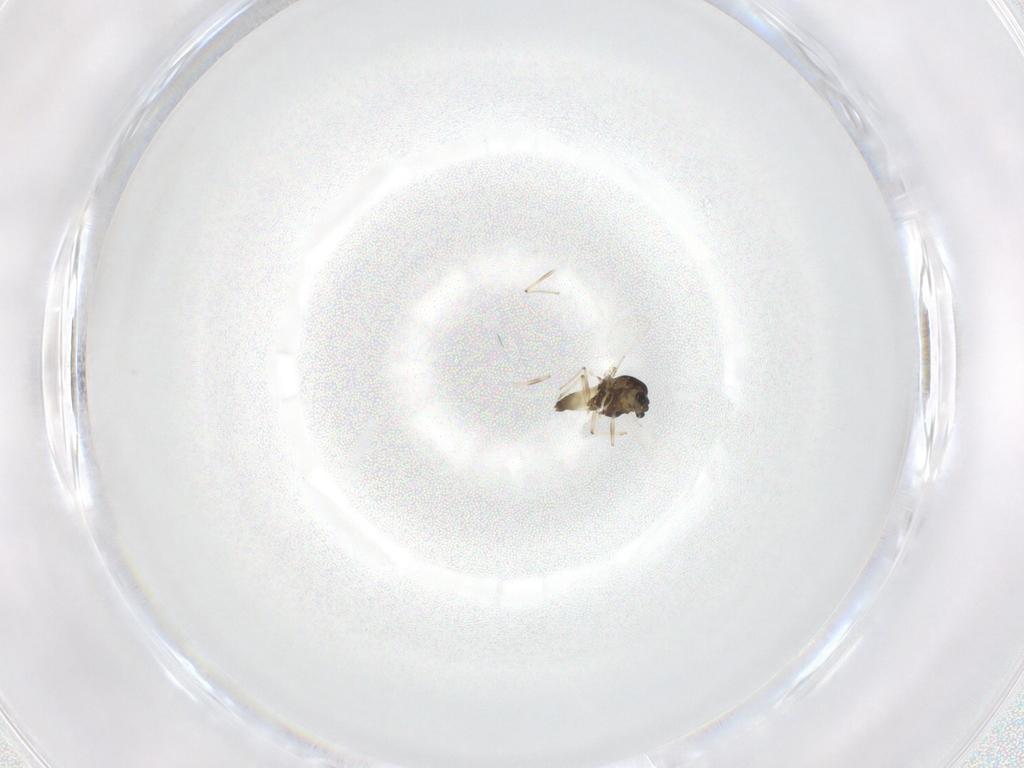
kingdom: Animalia
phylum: Arthropoda
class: Insecta
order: Diptera
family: Chironomidae
